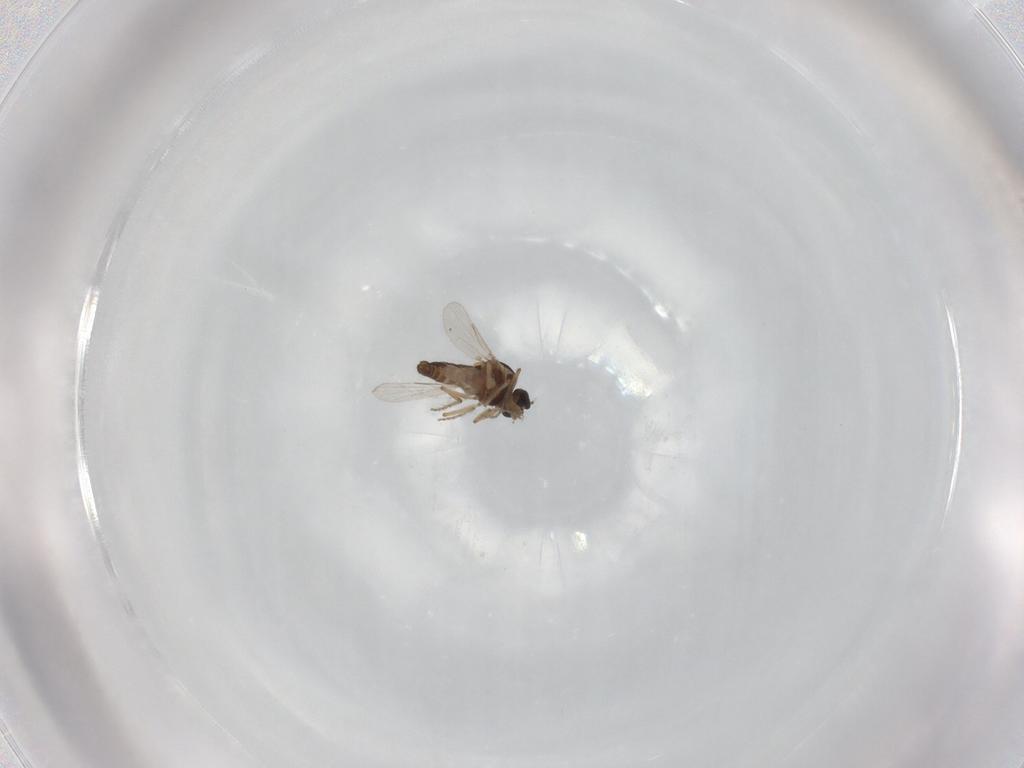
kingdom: Animalia
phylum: Arthropoda
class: Insecta
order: Diptera
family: Ceratopogonidae
